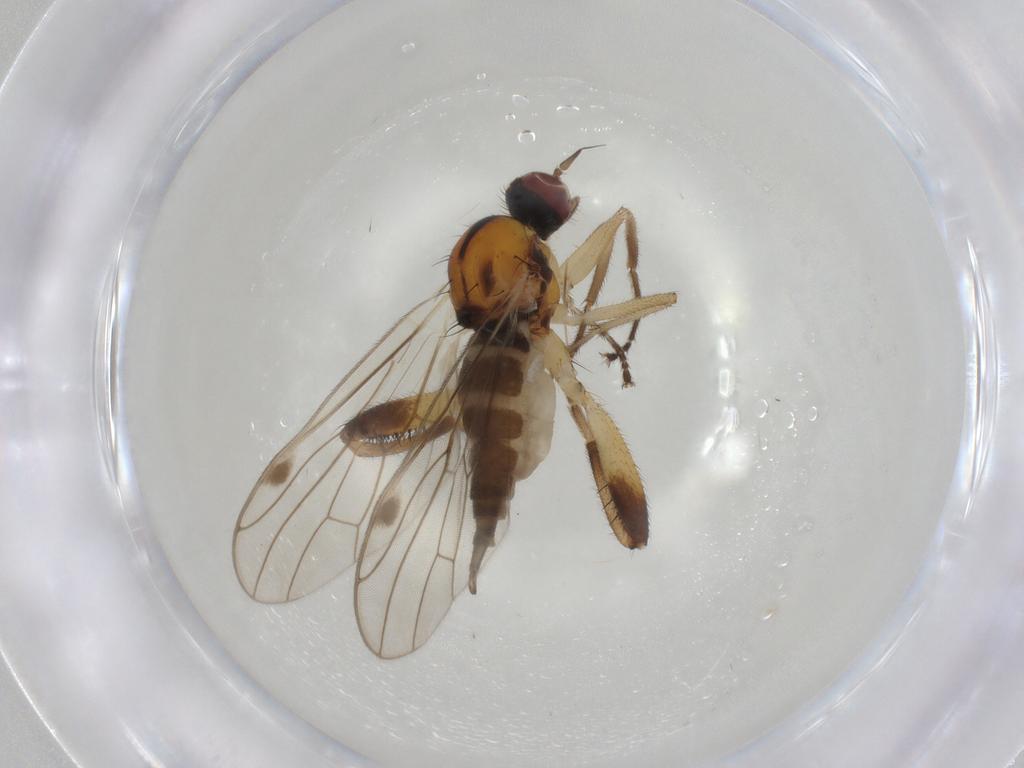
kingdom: Animalia
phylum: Arthropoda
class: Insecta
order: Diptera
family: Hybotidae
